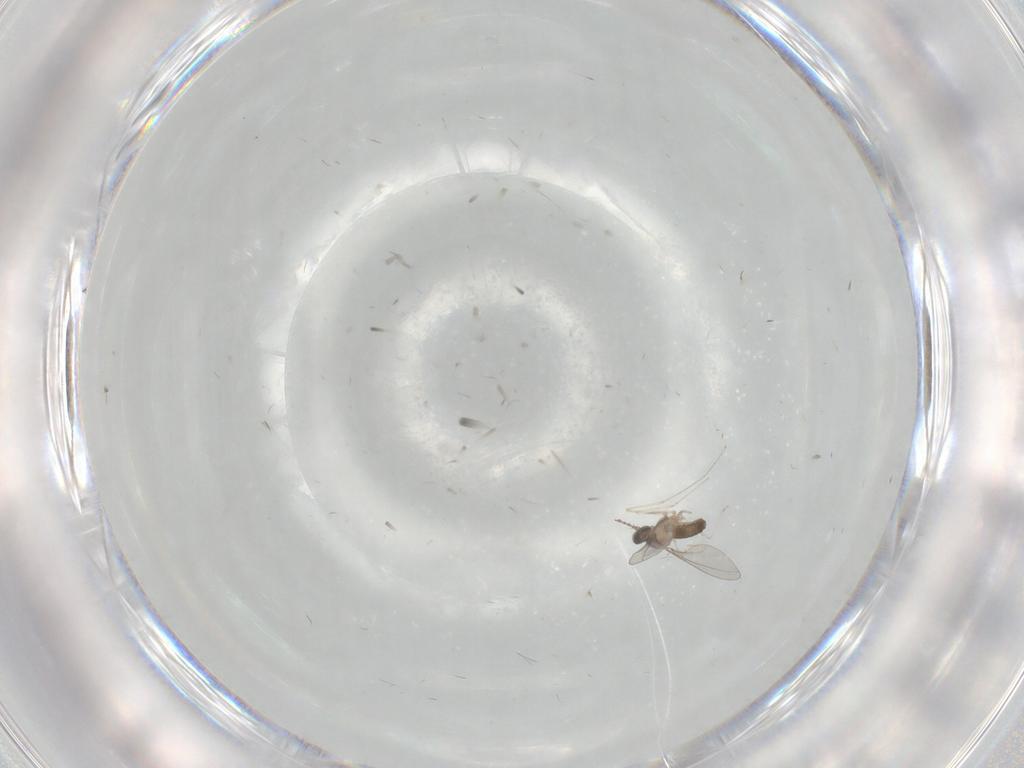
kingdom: Animalia
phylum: Arthropoda
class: Insecta
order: Diptera
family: Cecidomyiidae
